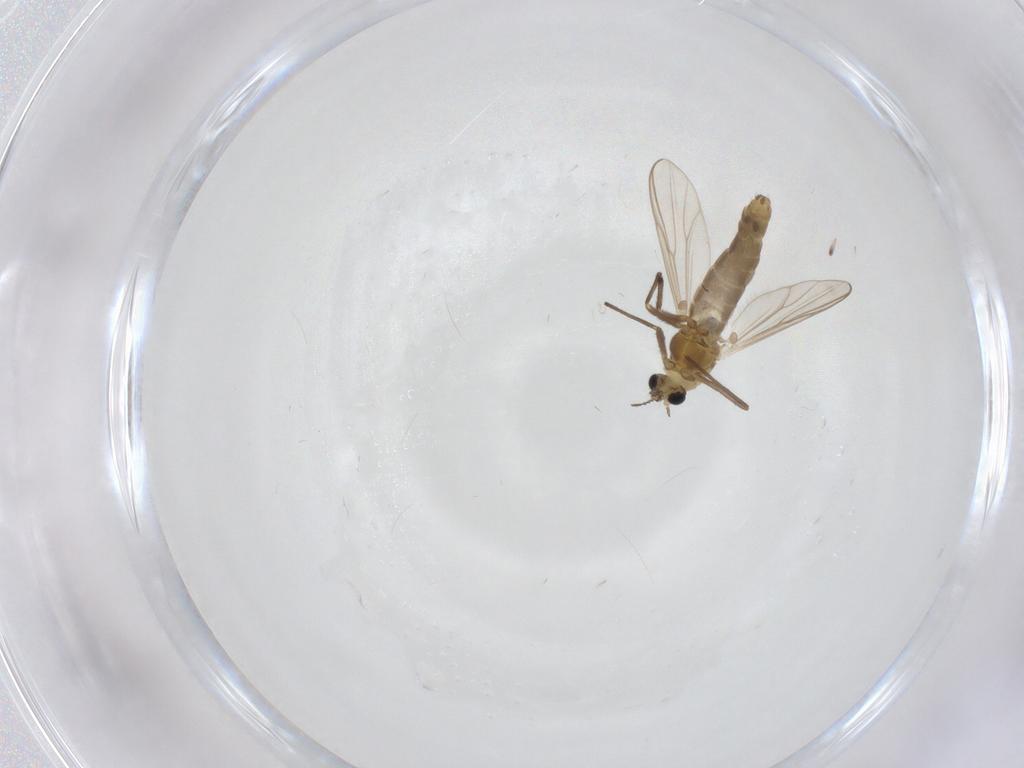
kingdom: Animalia
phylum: Arthropoda
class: Insecta
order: Diptera
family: Chironomidae
